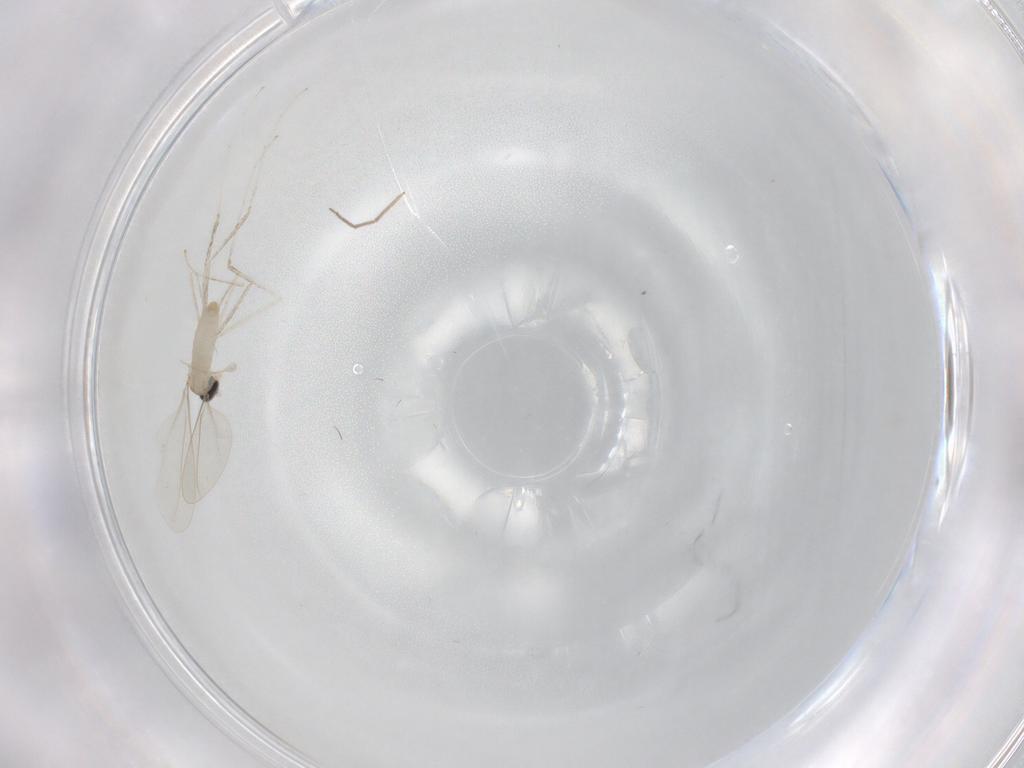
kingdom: Animalia
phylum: Arthropoda
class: Insecta
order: Diptera
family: Chironomidae
